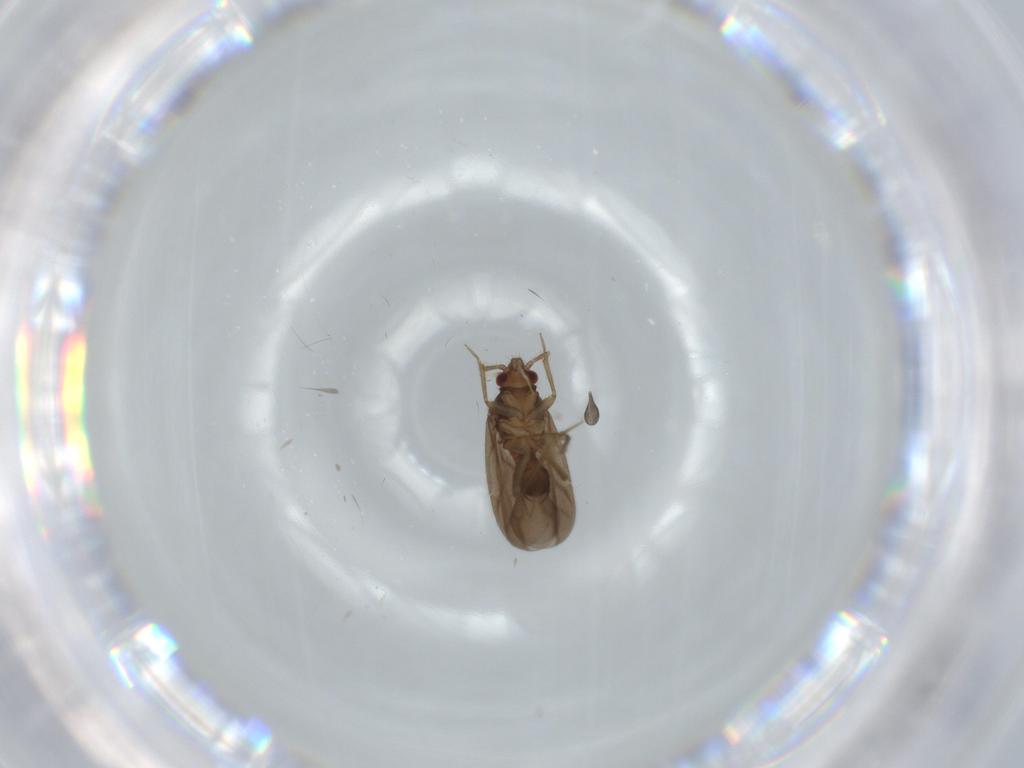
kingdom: Animalia
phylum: Arthropoda
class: Insecta
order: Hemiptera
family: Ceratocombidae
